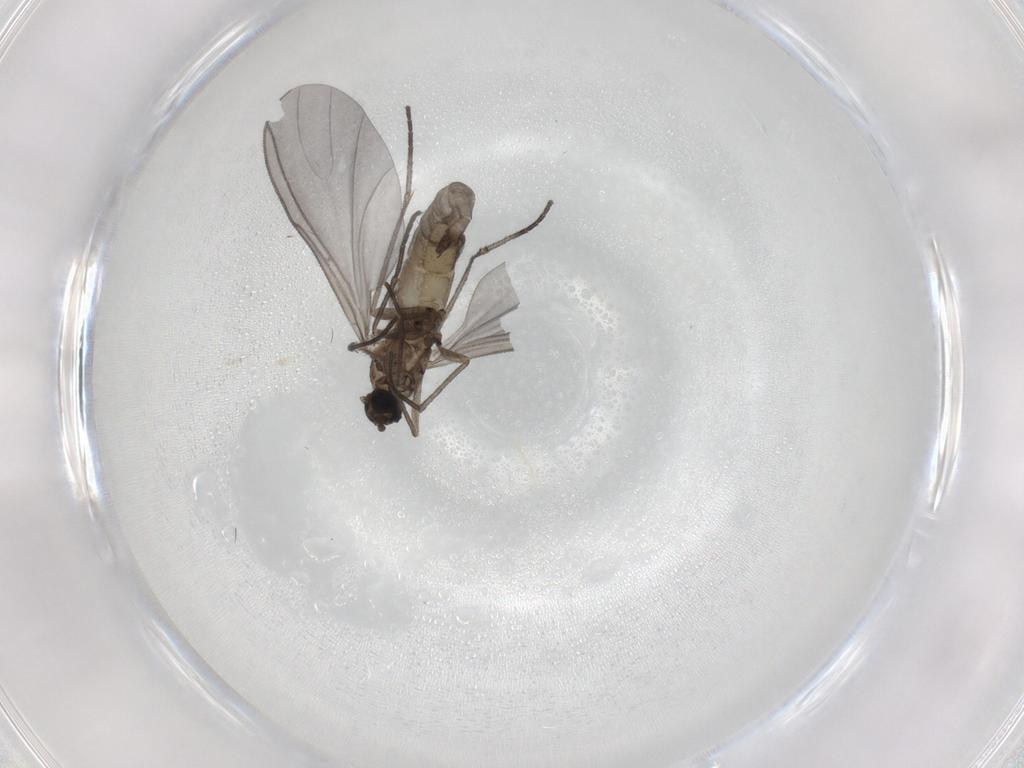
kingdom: Animalia
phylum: Arthropoda
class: Insecta
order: Diptera
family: Sciaridae
